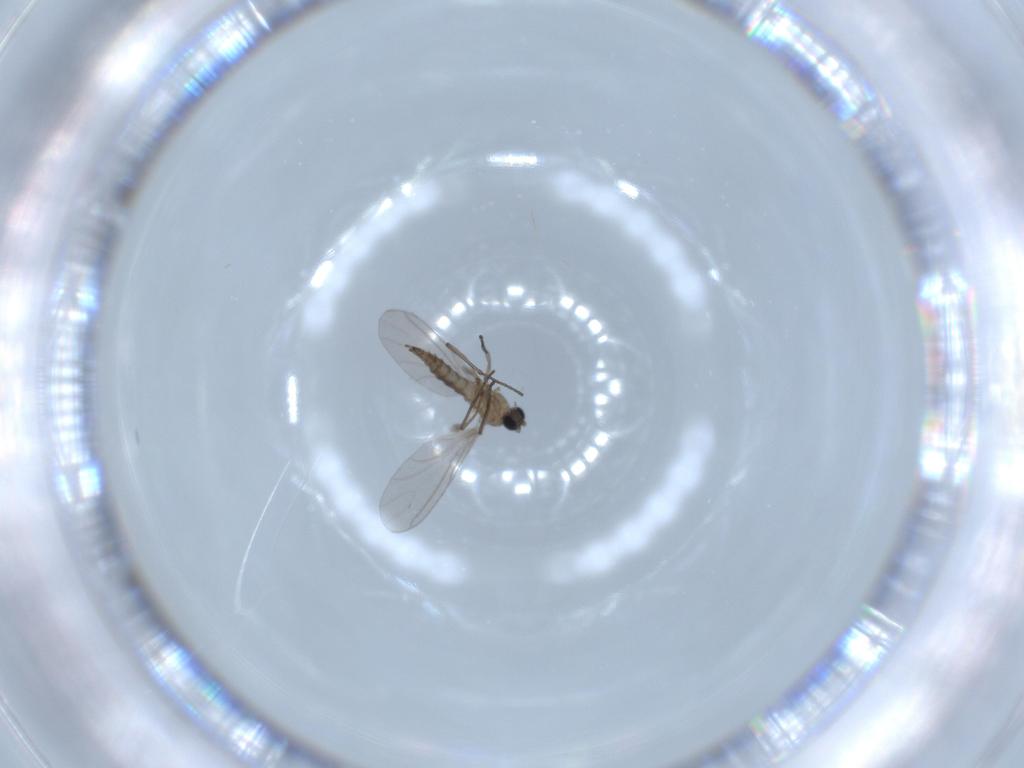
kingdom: Animalia
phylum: Arthropoda
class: Insecta
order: Diptera
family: Sciaridae
